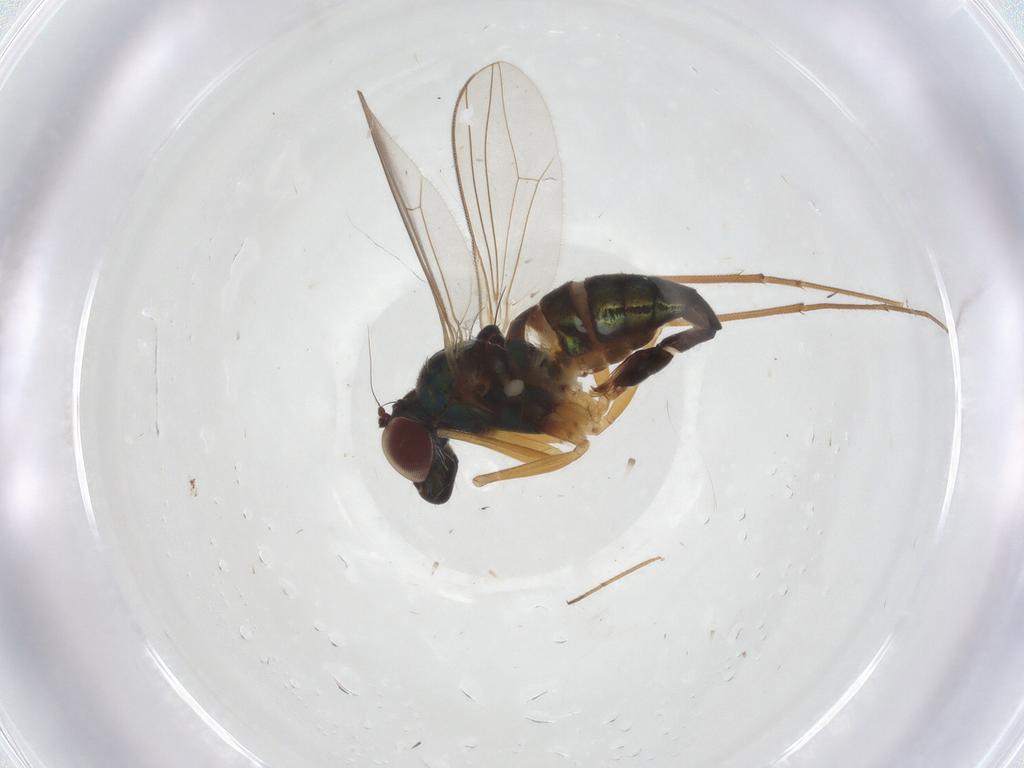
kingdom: Animalia
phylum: Arthropoda
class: Insecta
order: Diptera
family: Dolichopodidae
